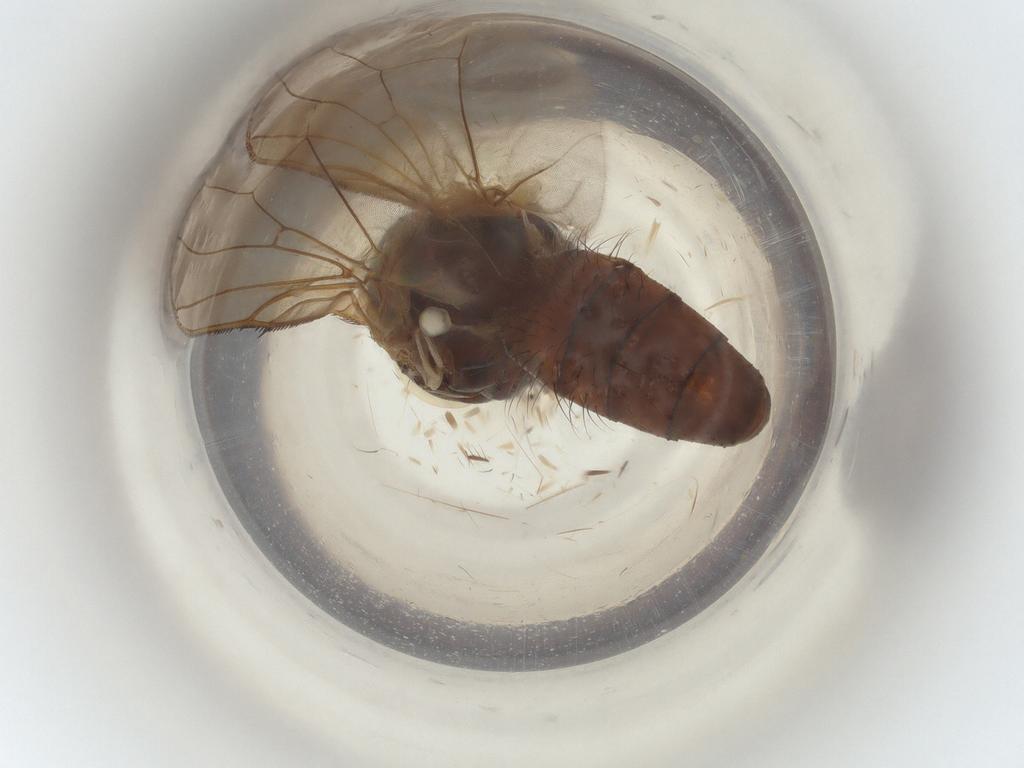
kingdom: Animalia
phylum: Arthropoda
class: Insecta
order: Diptera
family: Anthomyiidae
